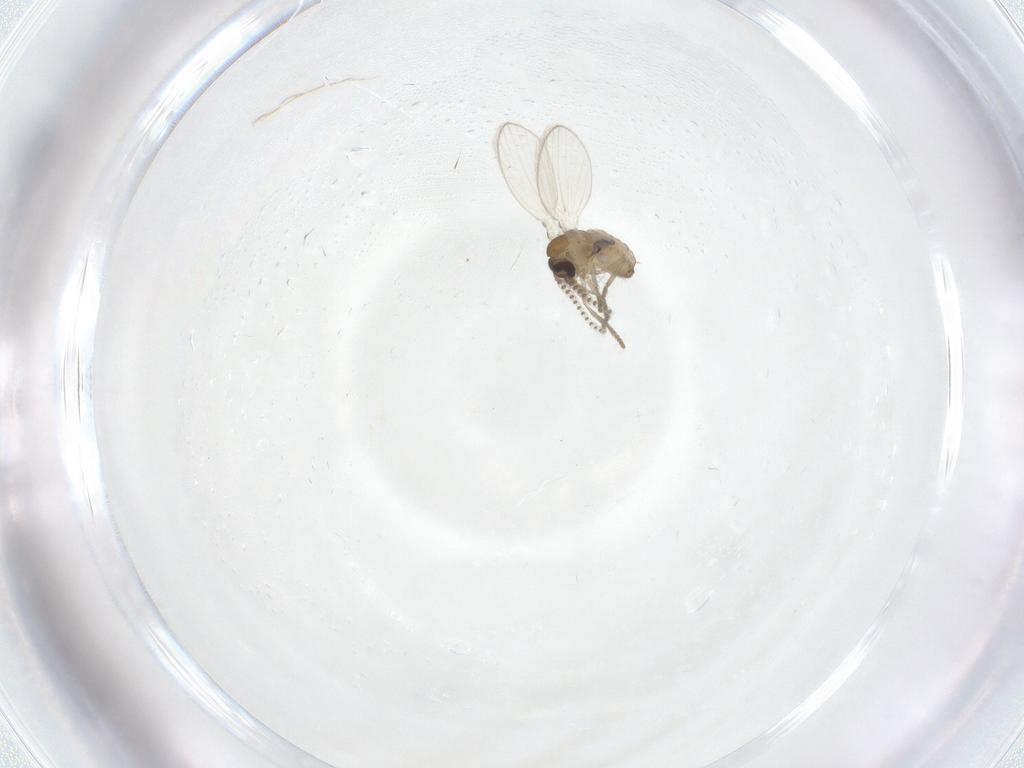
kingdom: Animalia
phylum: Arthropoda
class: Insecta
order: Diptera
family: Psychodidae
